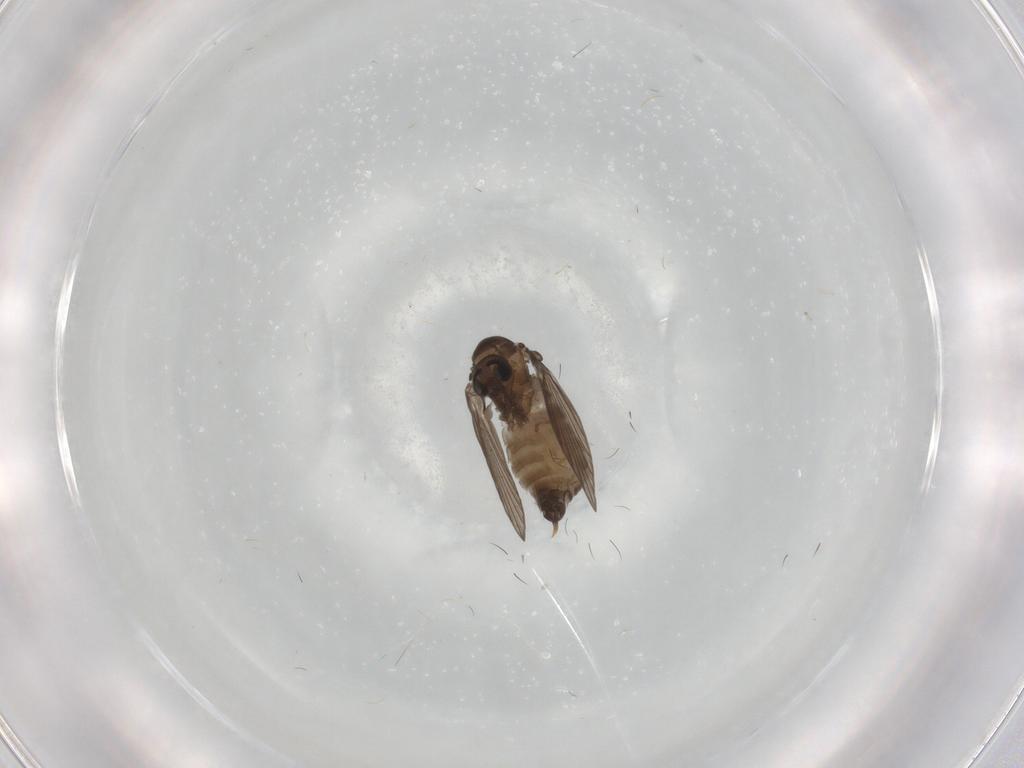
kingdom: Animalia
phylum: Arthropoda
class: Insecta
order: Diptera
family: Psychodidae
